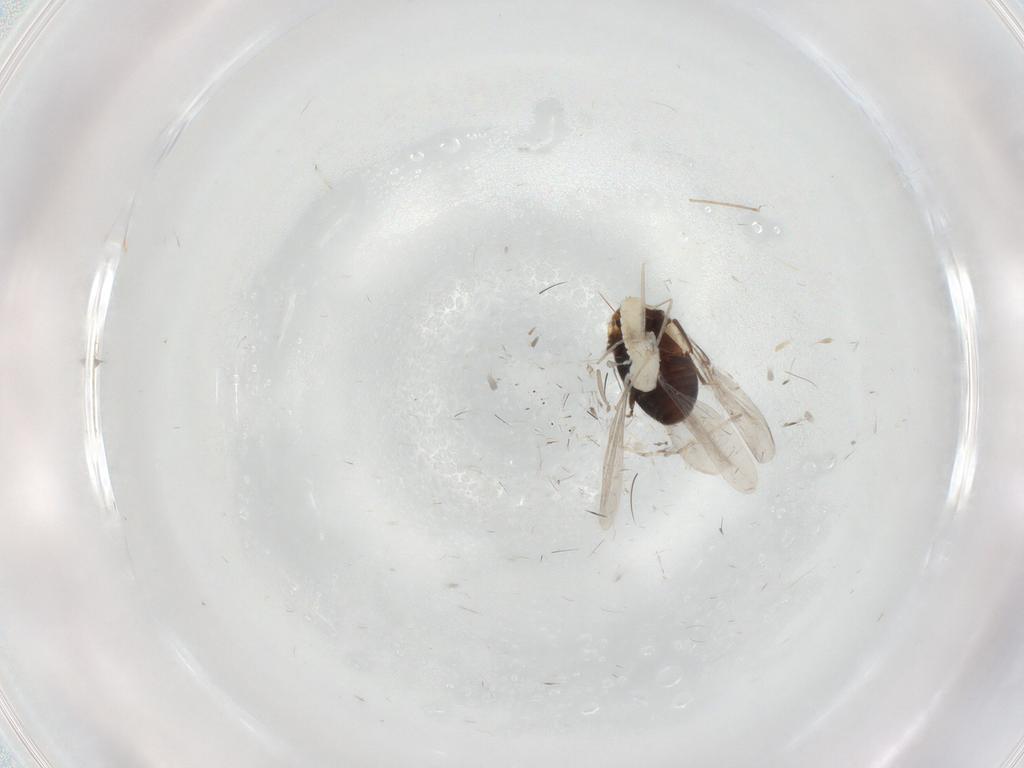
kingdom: Animalia
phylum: Arthropoda
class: Insecta
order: Diptera
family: Cecidomyiidae
